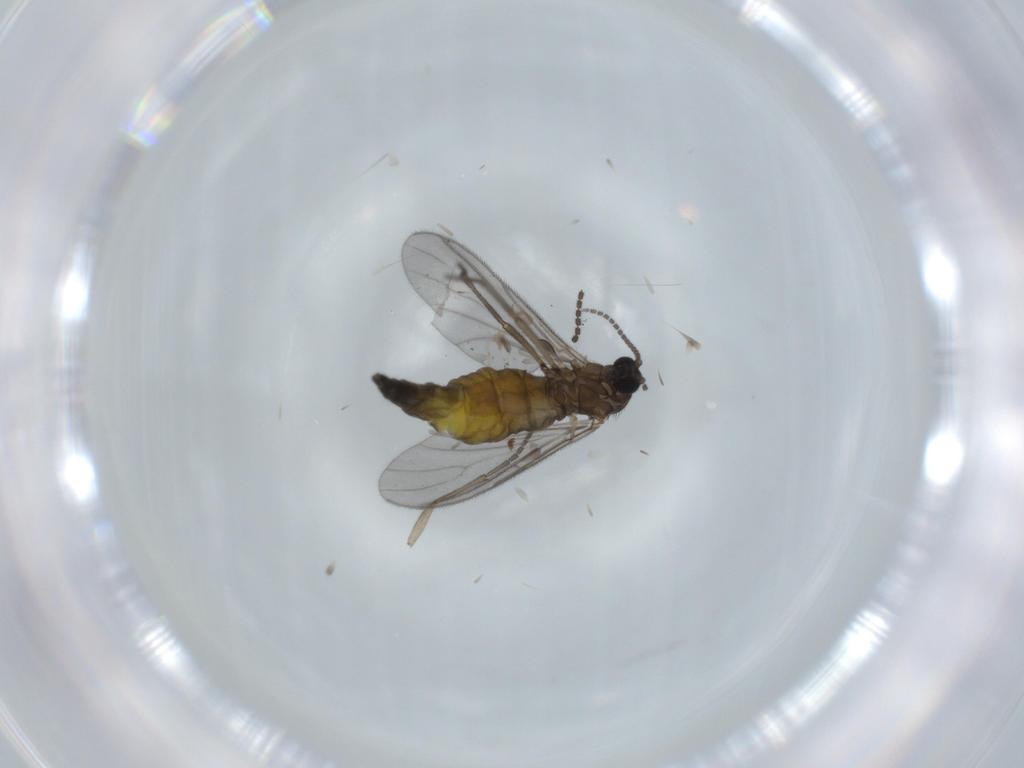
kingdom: Animalia
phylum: Arthropoda
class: Insecta
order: Diptera
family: Sciaridae
